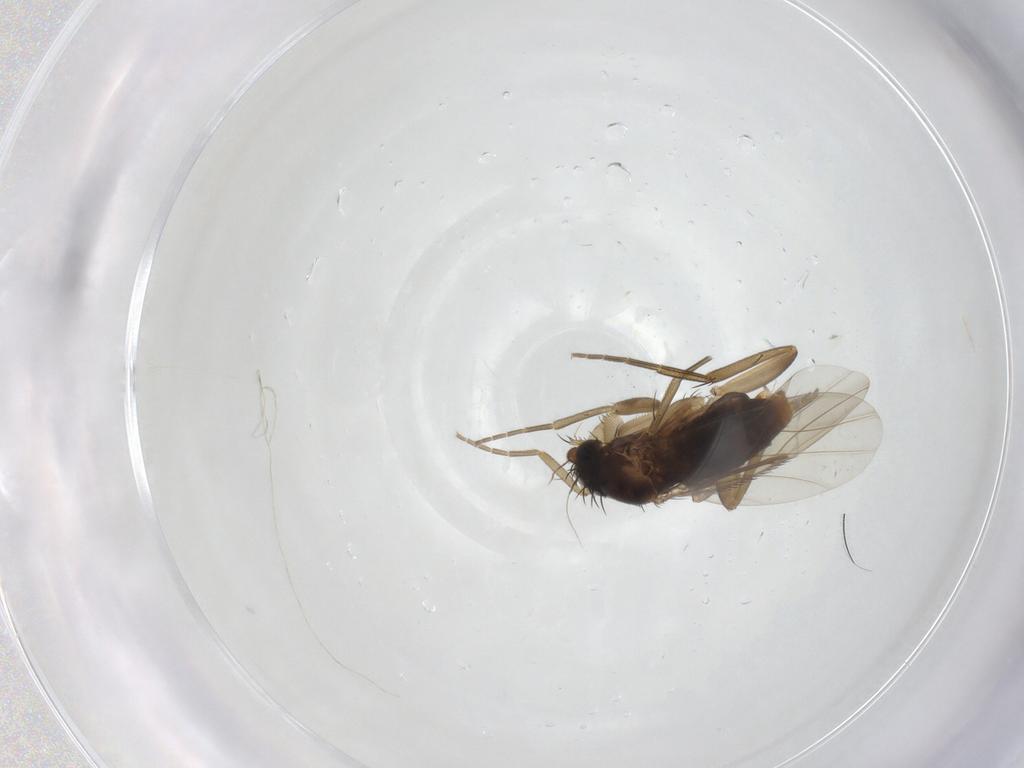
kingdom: Animalia
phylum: Arthropoda
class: Insecta
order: Diptera
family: Phoridae
